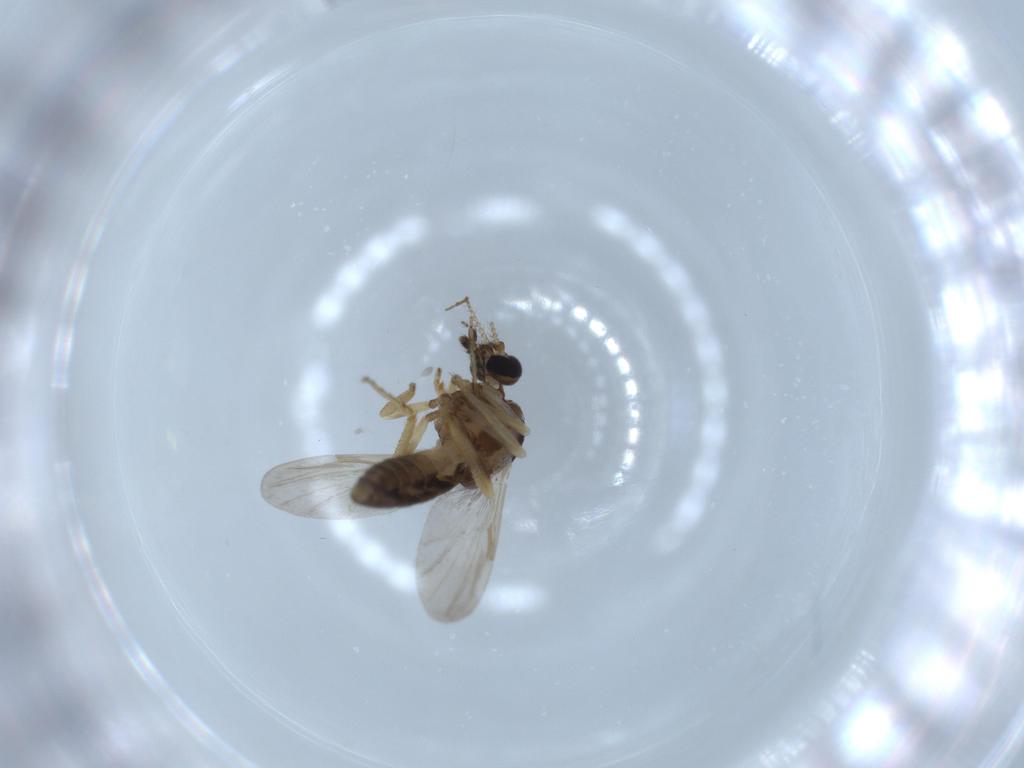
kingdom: Animalia
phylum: Arthropoda
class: Insecta
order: Diptera
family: Ceratopogonidae
